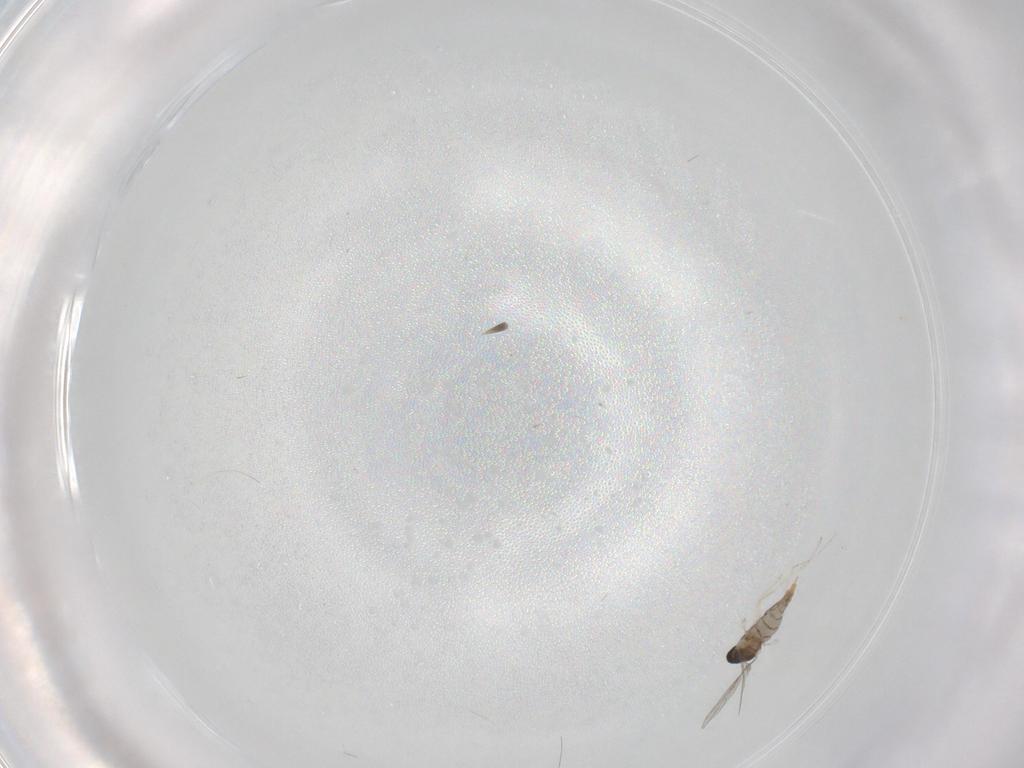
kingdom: Animalia
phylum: Arthropoda
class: Insecta
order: Diptera
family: Cecidomyiidae
